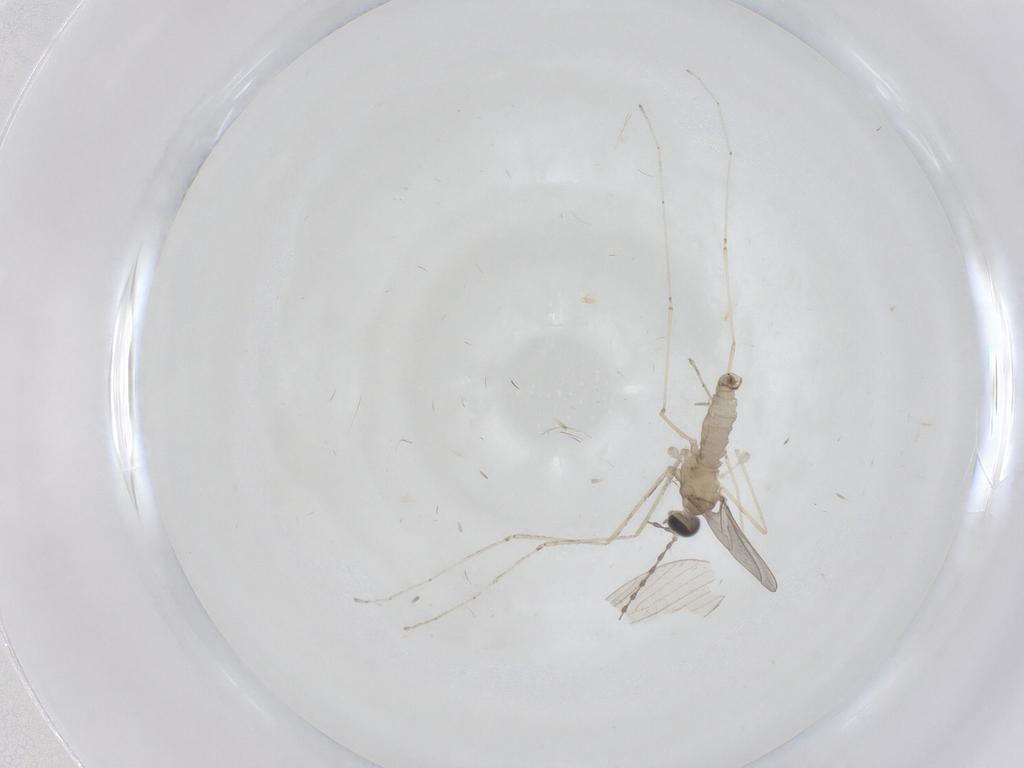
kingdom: Animalia
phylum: Arthropoda
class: Insecta
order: Diptera
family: Cecidomyiidae
